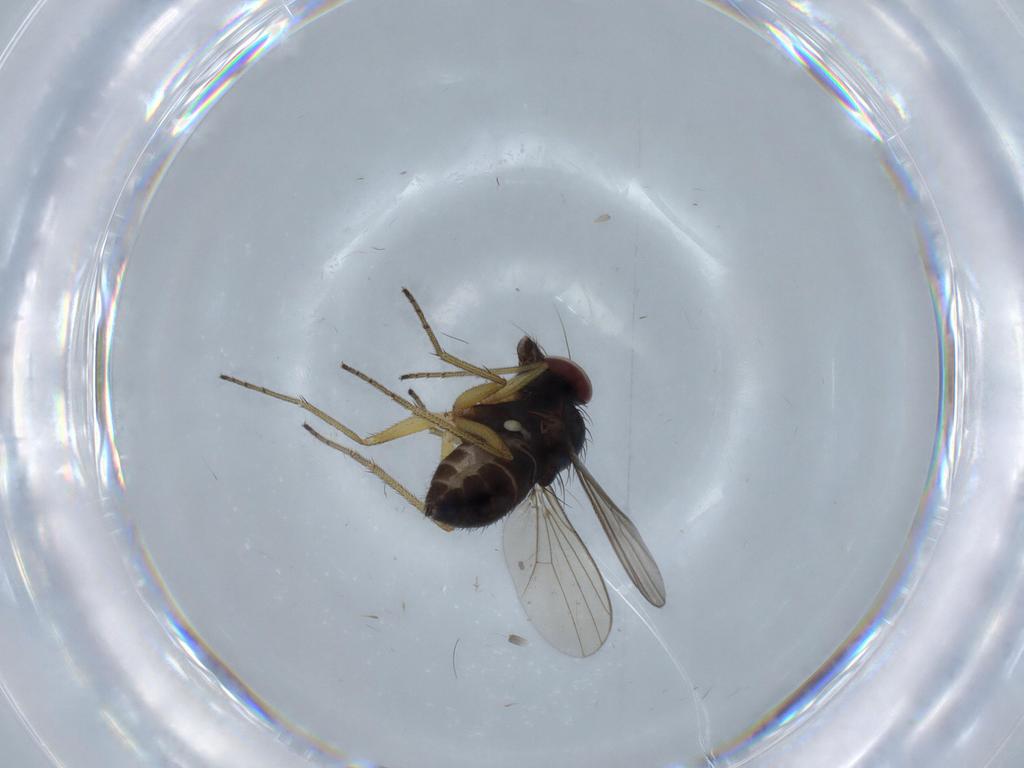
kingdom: Animalia
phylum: Arthropoda
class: Insecta
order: Diptera
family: Dolichopodidae
